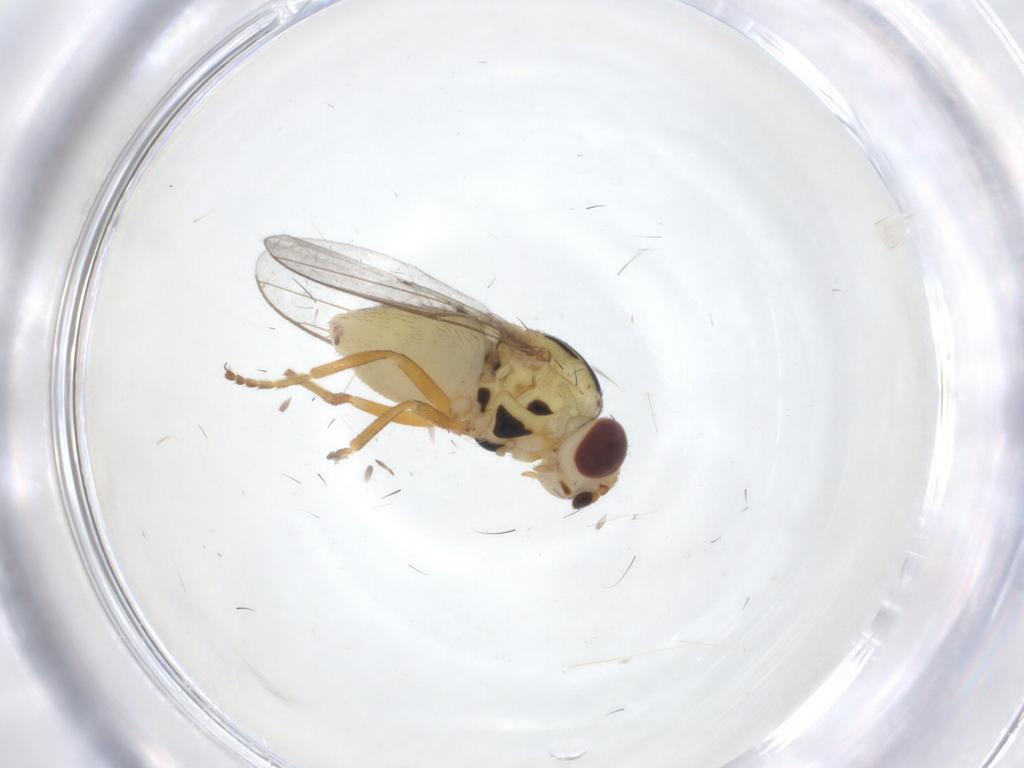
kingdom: Animalia
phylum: Arthropoda
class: Insecta
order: Diptera
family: Chloropidae
